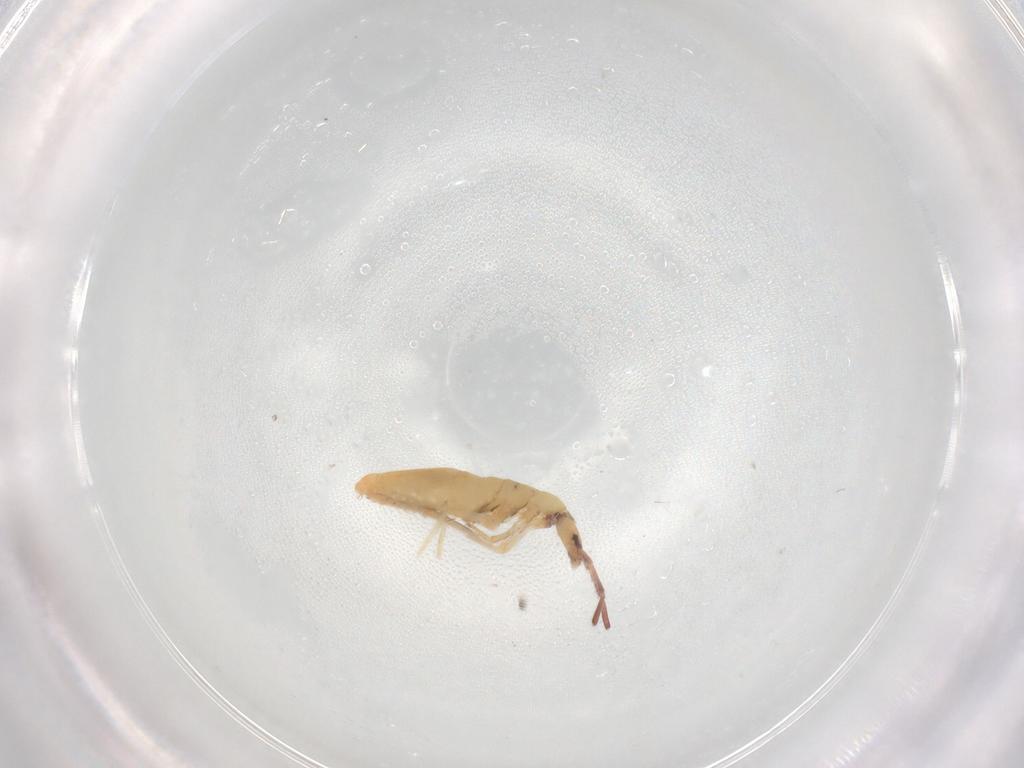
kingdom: Animalia
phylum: Arthropoda
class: Collembola
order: Entomobryomorpha
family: Entomobryidae
